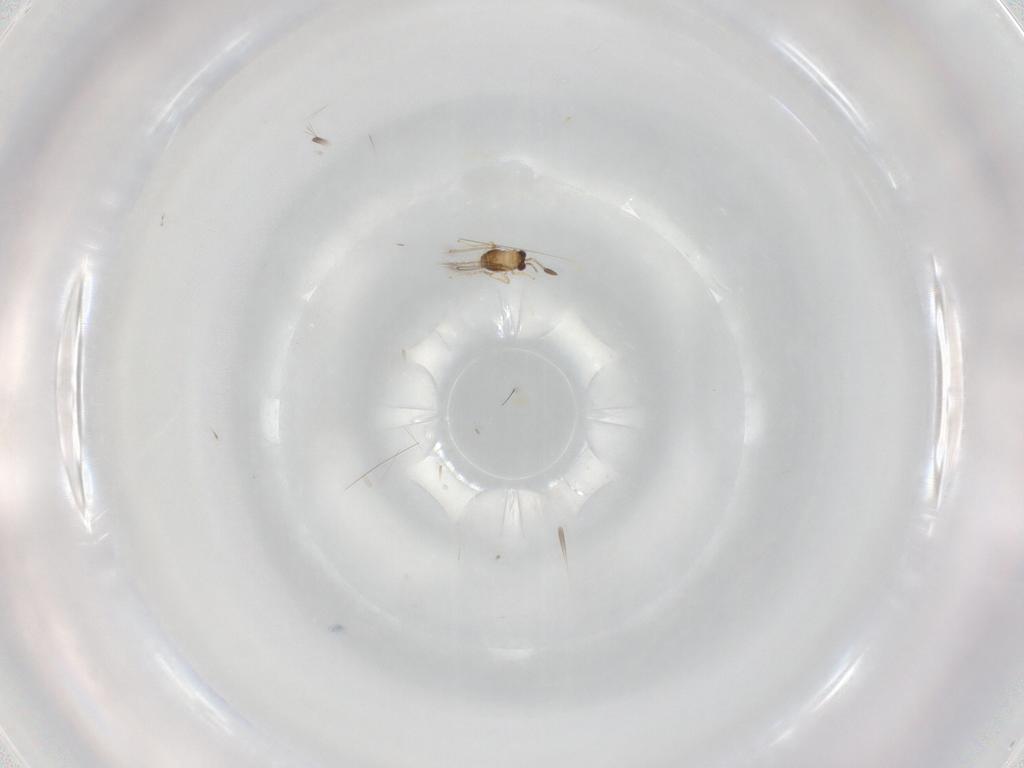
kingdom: Animalia
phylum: Arthropoda
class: Insecta
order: Hymenoptera
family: Mymaridae
